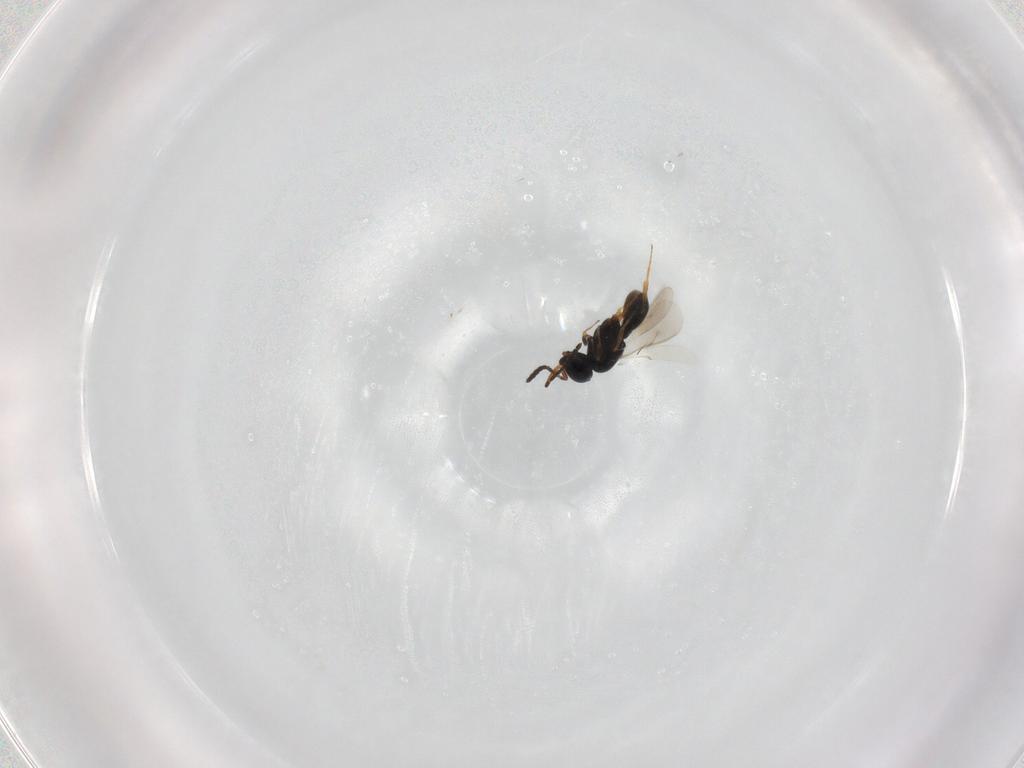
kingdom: Animalia
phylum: Arthropoda
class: Insecta
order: Hymenoptera
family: Scelionidae
